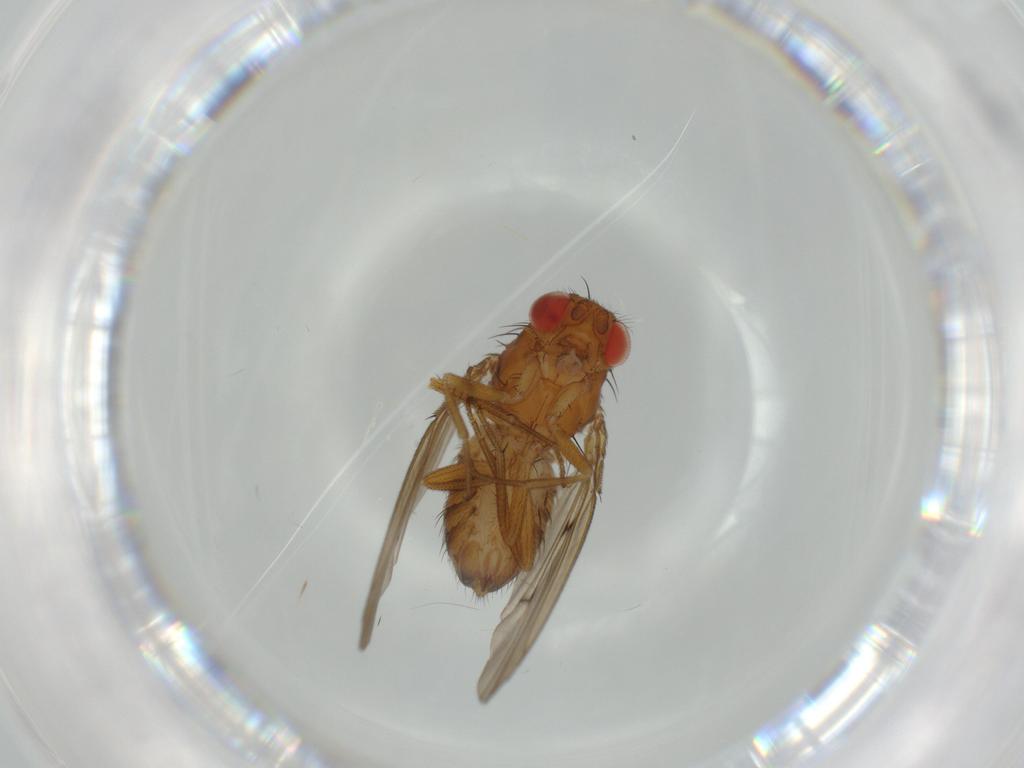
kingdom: Animalia
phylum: Arthropoda
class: Insecta
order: Diptera
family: Drosophilidae
